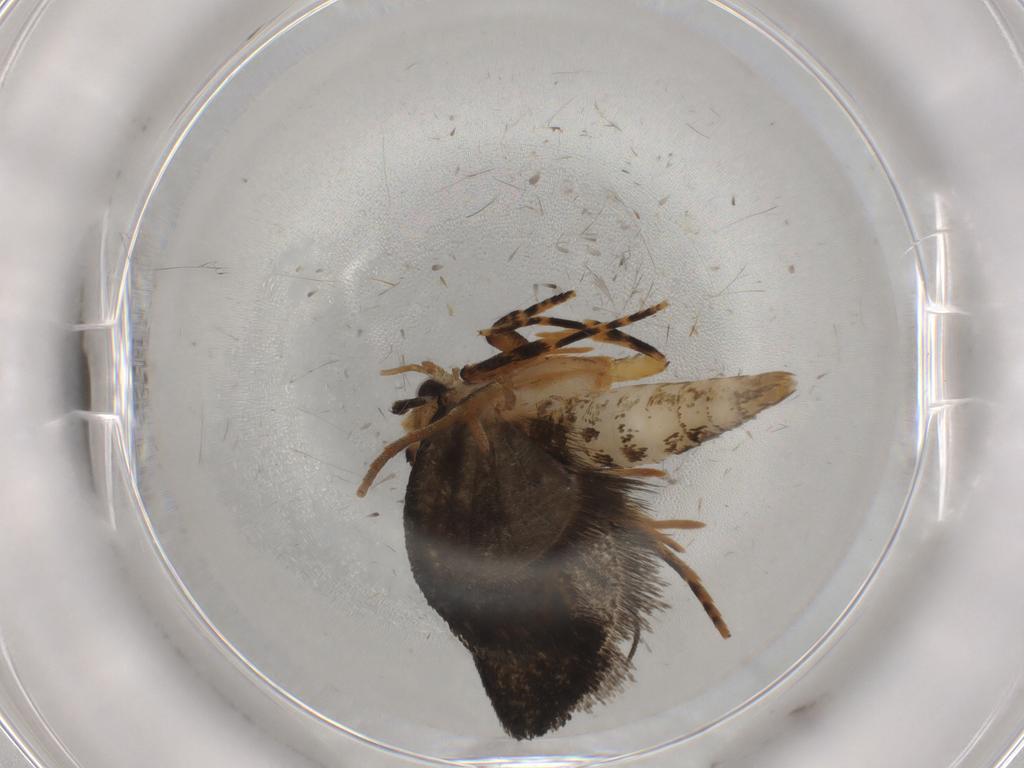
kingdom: Animalia
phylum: Arthropoda
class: Insecta
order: Lepidoptera
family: Tineidae
